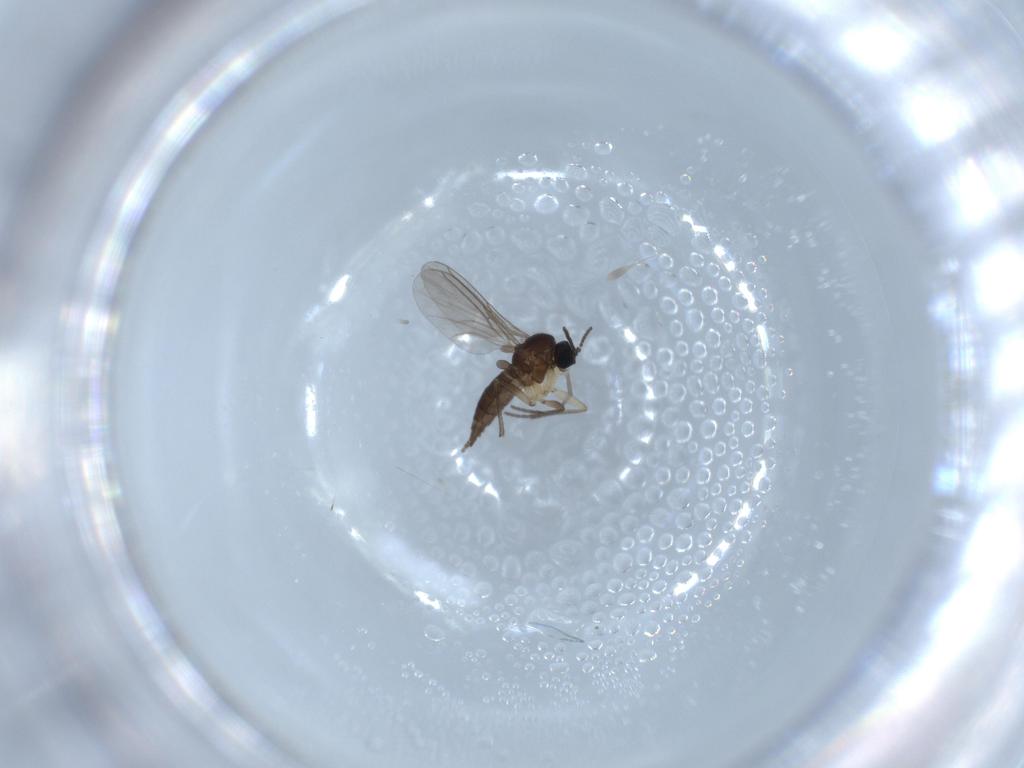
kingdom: Animalia
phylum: Arthropoda
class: Insecta
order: Diptera
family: Sciaridae
